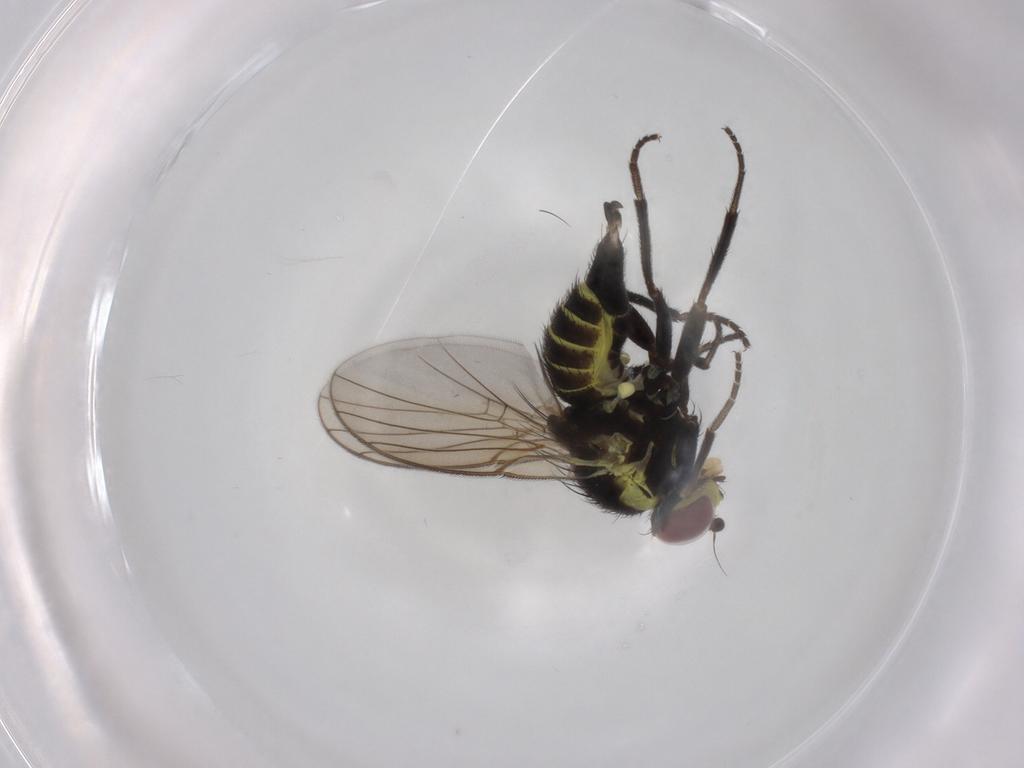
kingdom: Animalia
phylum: Arthropoda
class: Insecta
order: Diptera
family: Agromyzidae
